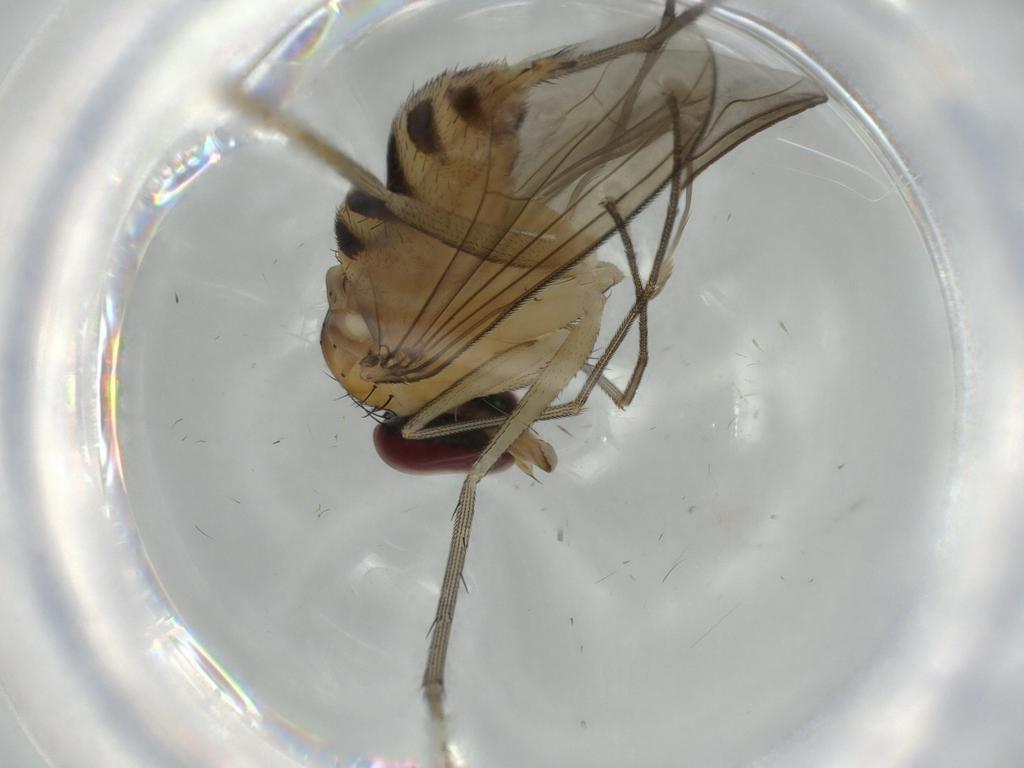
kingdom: Animalia
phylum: Arthropoda
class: Insecta
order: Diptera
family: Dolichopodidae
